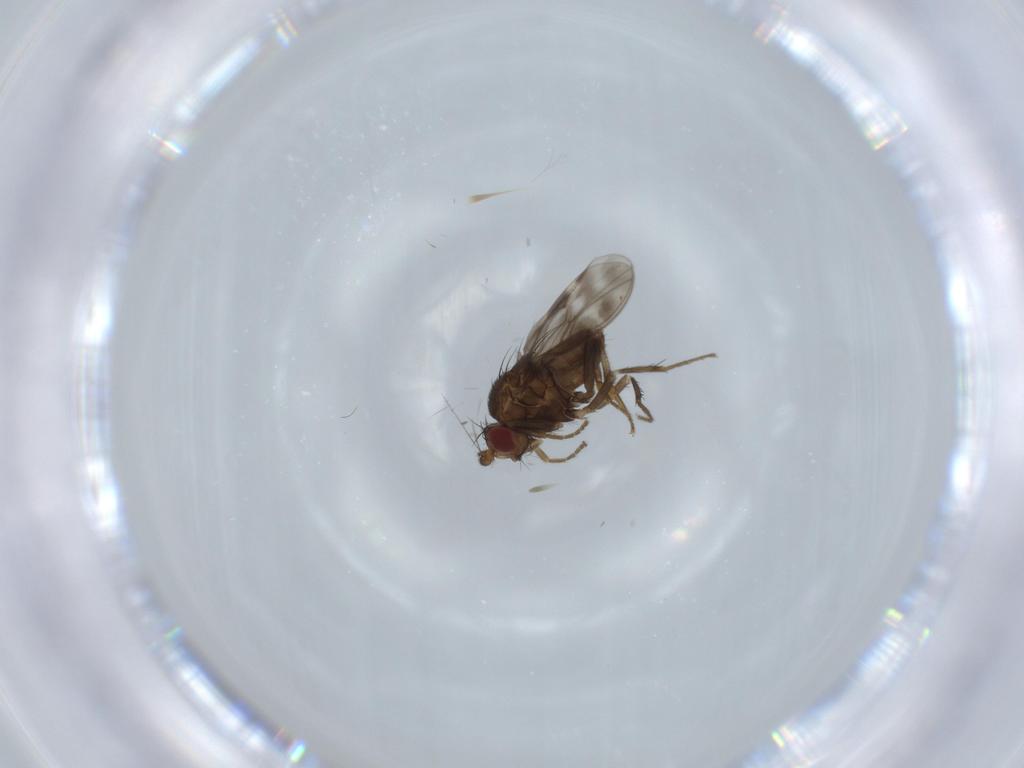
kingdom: Animalia
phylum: Arthropoda
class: Insecta
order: Diptera
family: Sphaeroceridae
